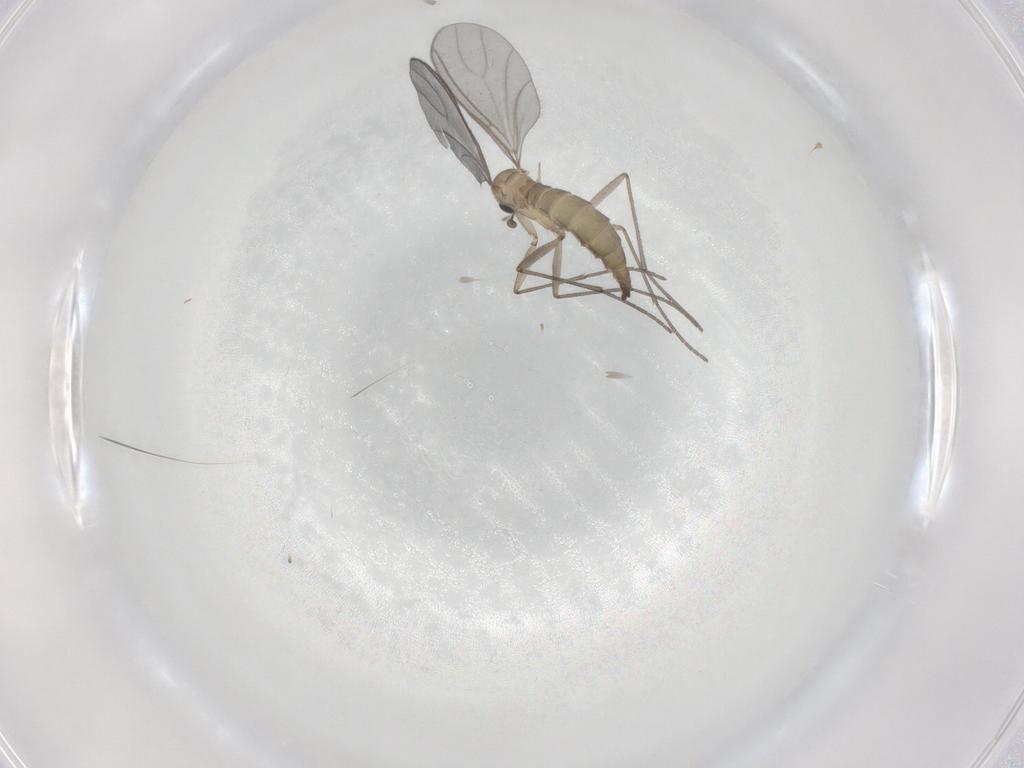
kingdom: Animalia
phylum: Arthropoda
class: Insecta
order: Diptera
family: Sciaridae
